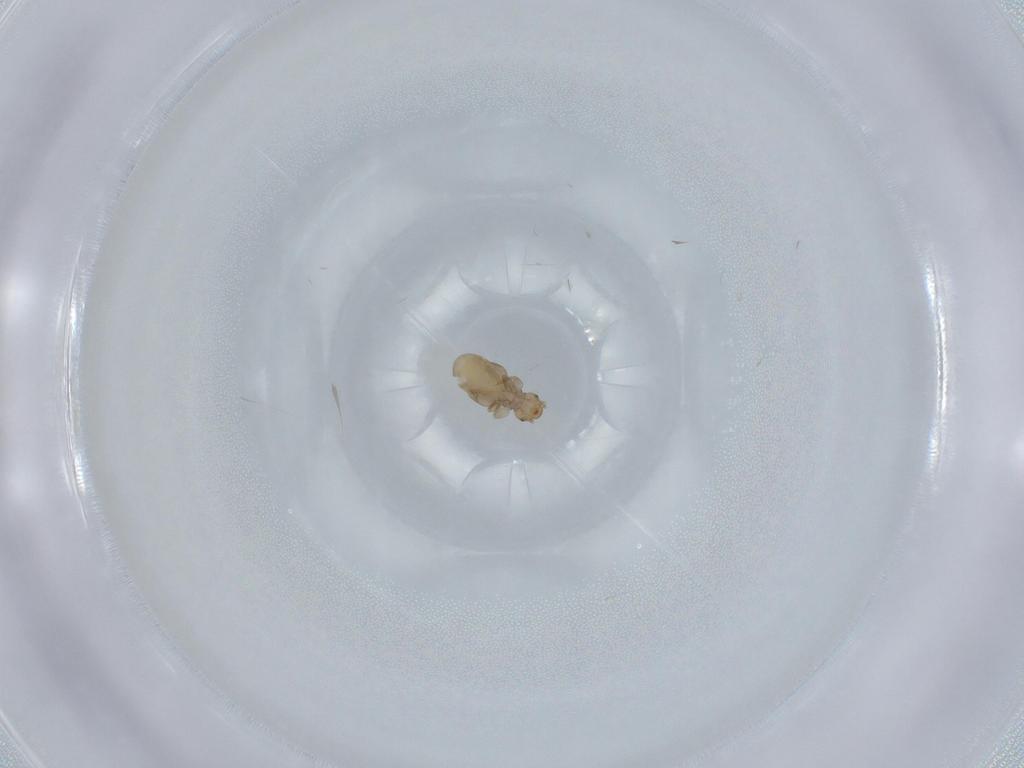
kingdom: Animalia
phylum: Arthropoda
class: Insecta
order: Psocodea
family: Liposcelididae
